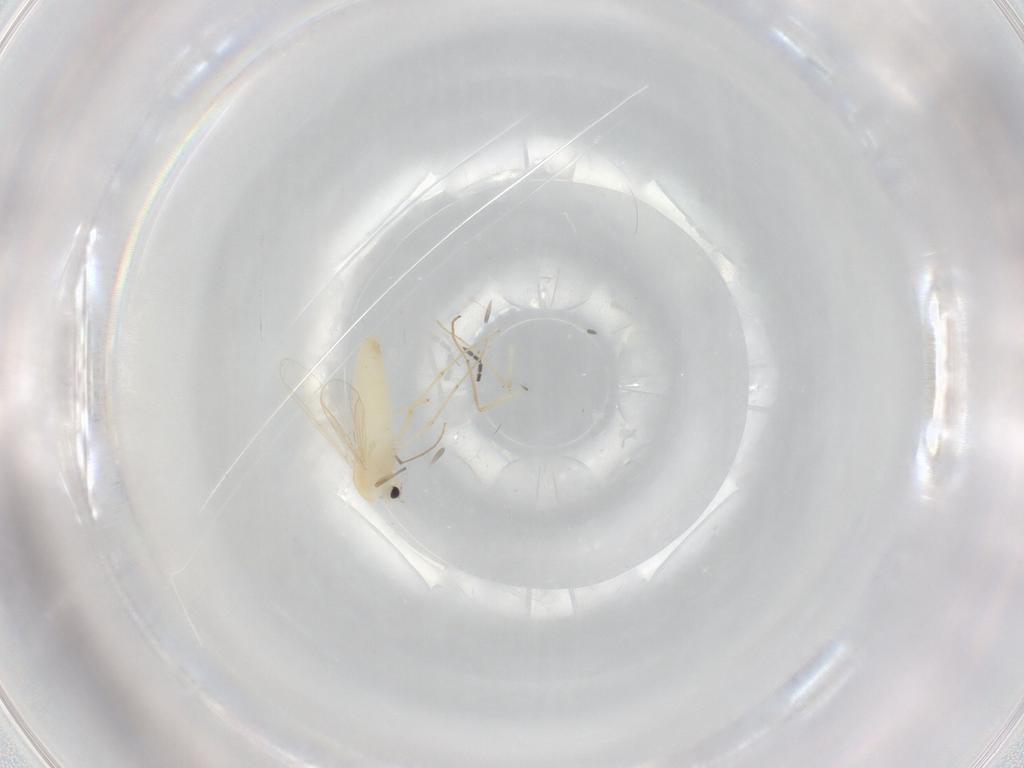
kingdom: Animalia
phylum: Arthropoda
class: Insecta
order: Diptera
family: Chironomidae
